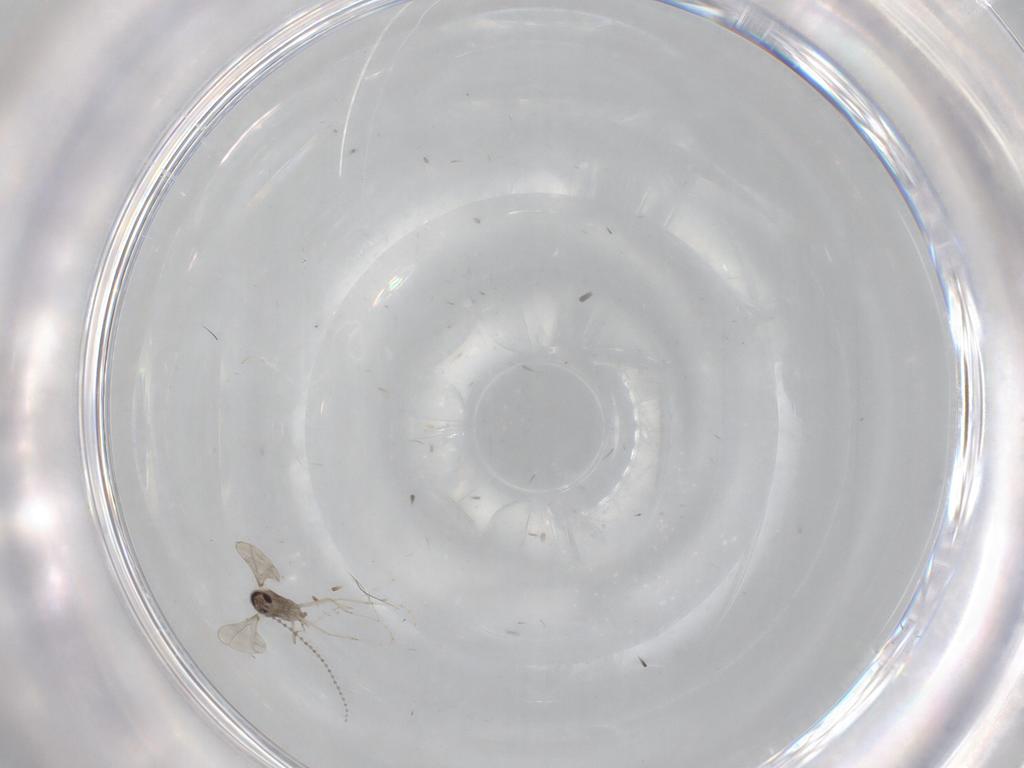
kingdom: Animalia
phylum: Arthropoda
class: Insecta
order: Diptera
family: Cecidomyiidae
